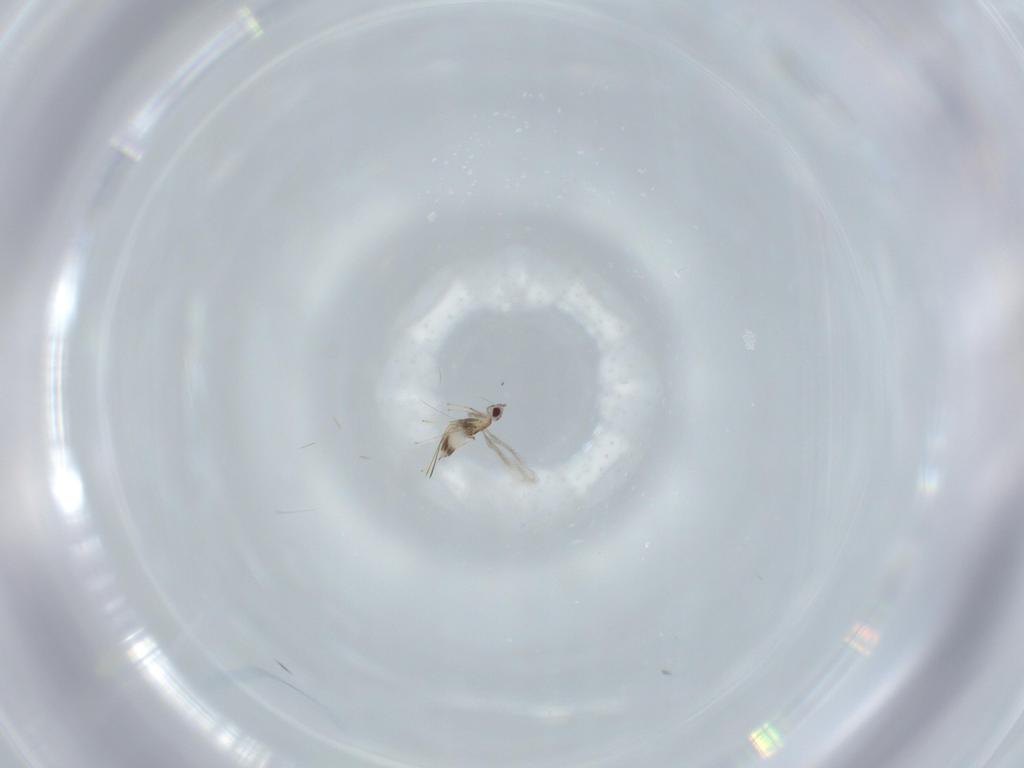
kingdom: Animalia
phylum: Arthropoda
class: Insecta
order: Hymenoptera
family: Mymaridae
